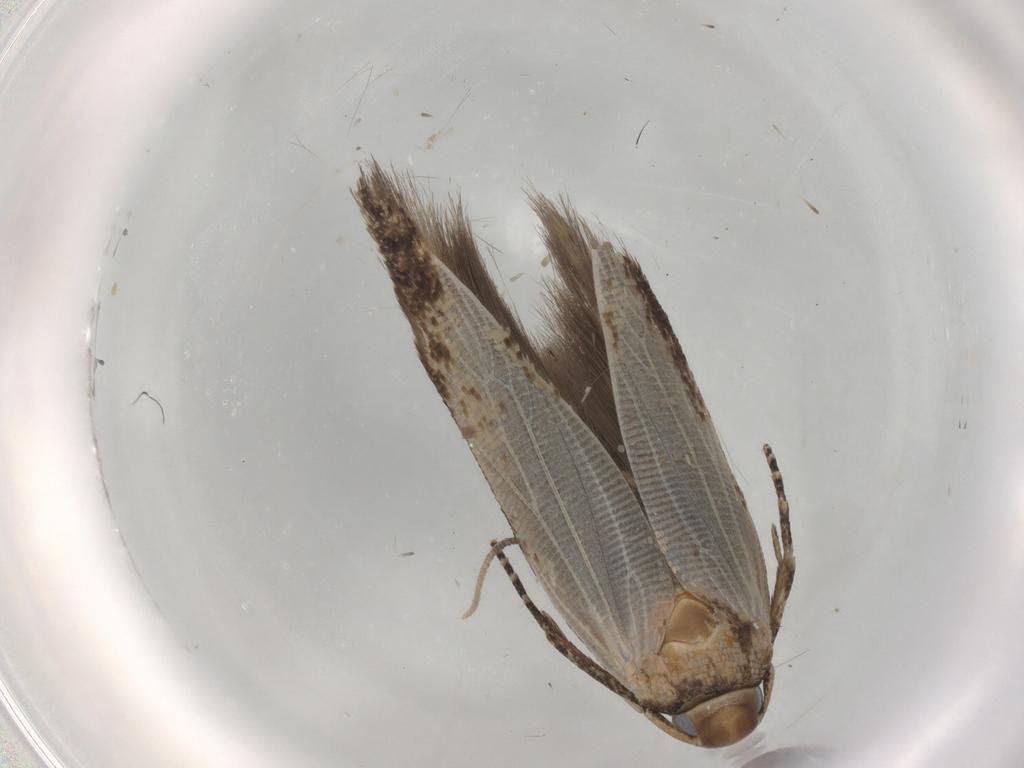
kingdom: Animalia
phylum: Arthropoda
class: Insecta
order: Lepidoptera
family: Cosmopterigidae
